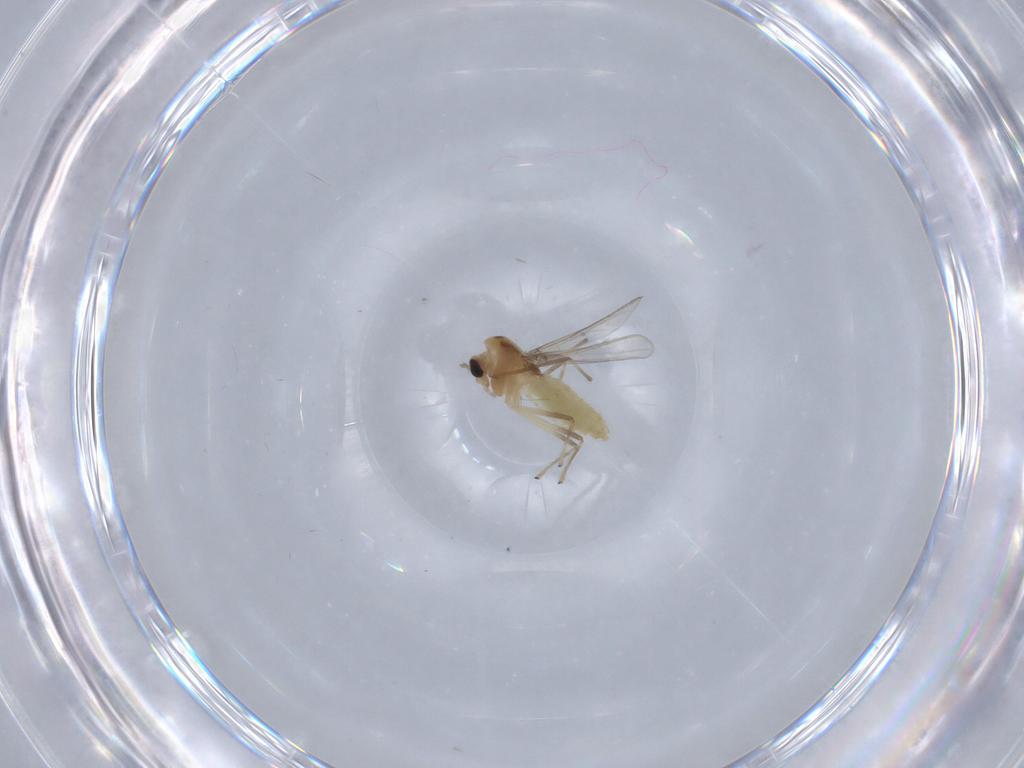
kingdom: Animalia
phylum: Arthropoda
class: Insecta
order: Diptera
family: Chironomidae
